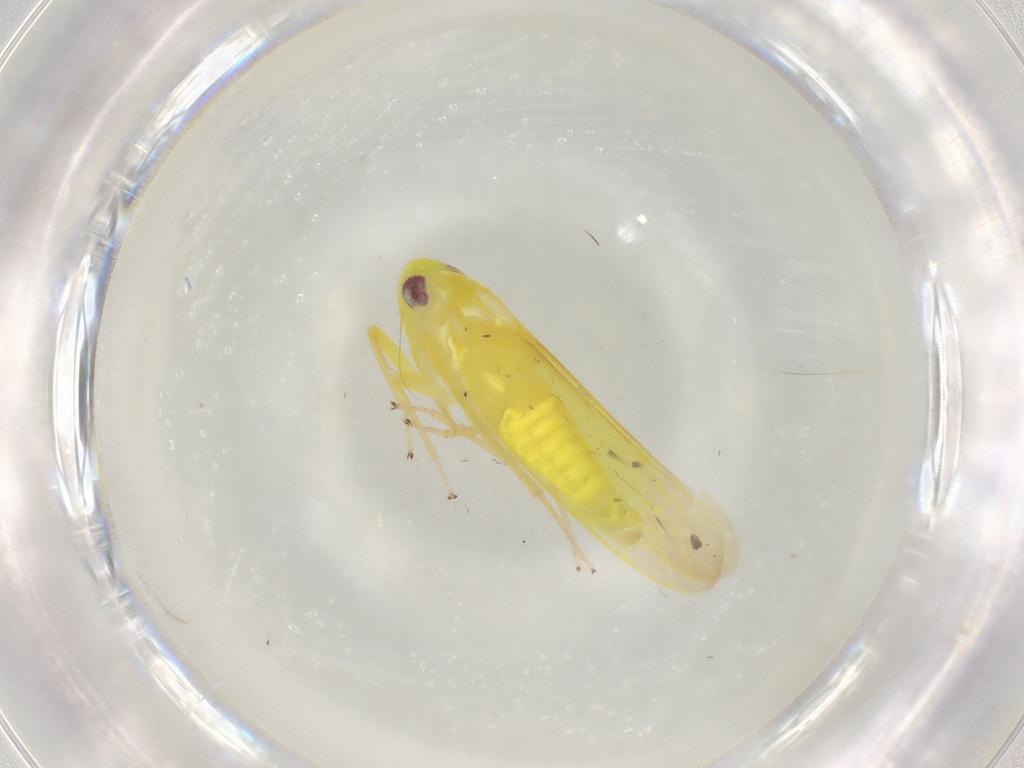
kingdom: Animalia
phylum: Arthropoda
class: Insecta
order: Hemiptera
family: Cicadellidae
